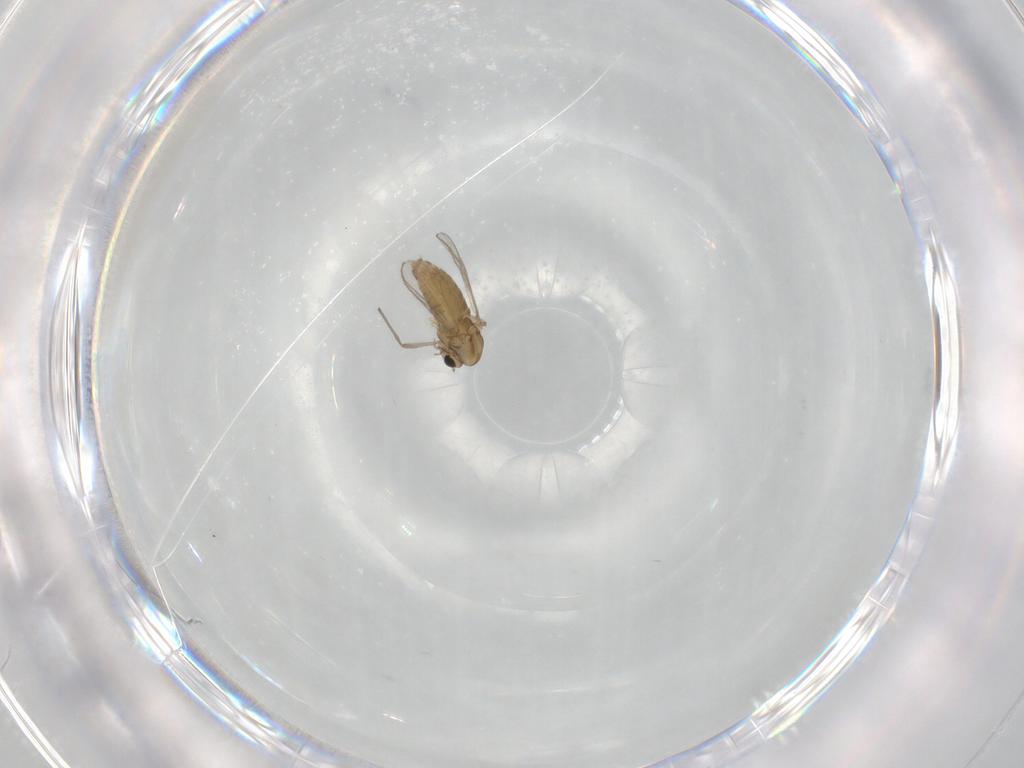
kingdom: Animalia
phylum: Arthropoda
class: Insecta
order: Diptera
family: Chironomidae
